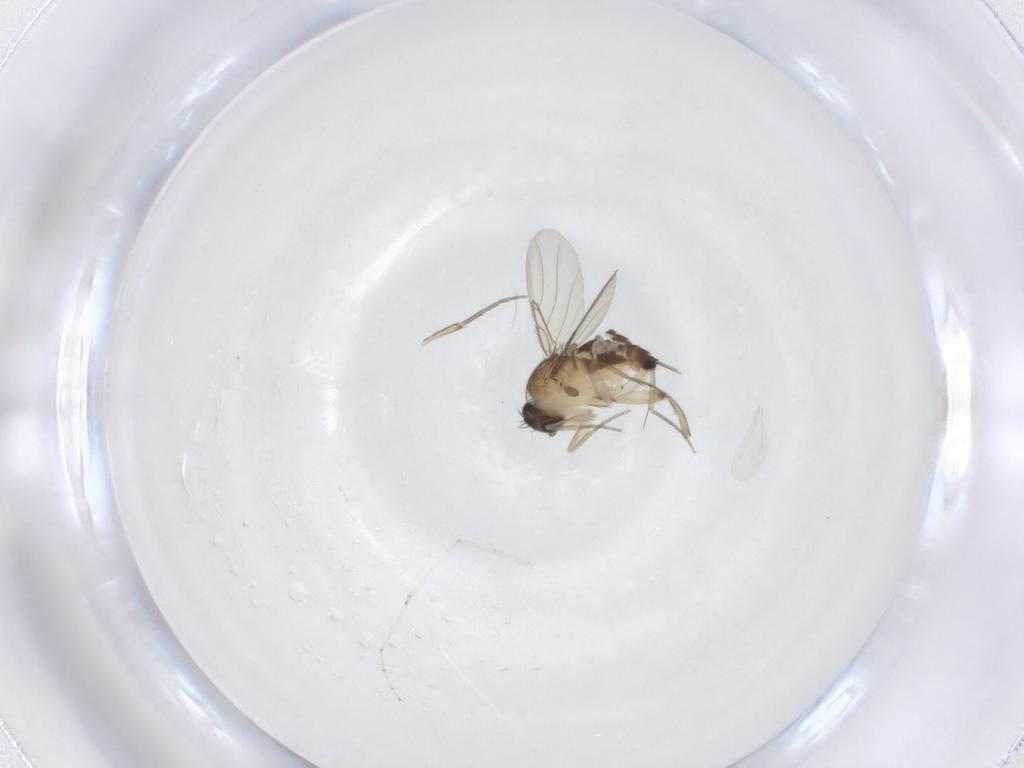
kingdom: Animalia
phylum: Arthropoda
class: Insecta
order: Diptera
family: Phoridae
